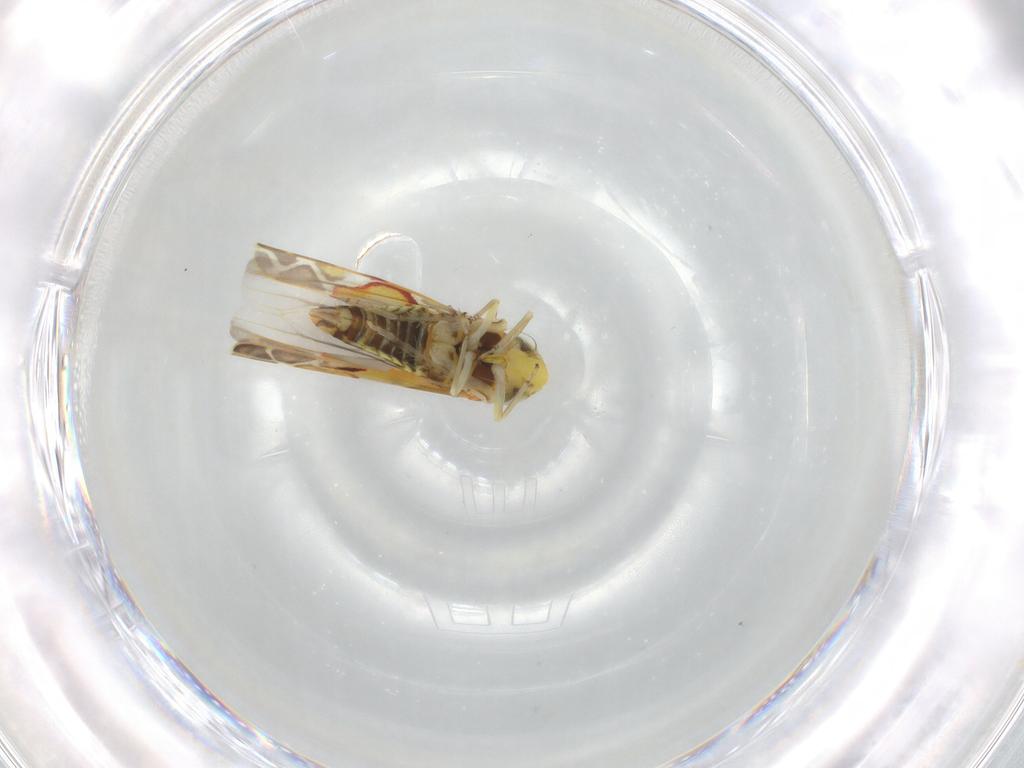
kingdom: Animalia
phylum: Arthropoda
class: Insecta
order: Hemiptera
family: Cicadellidae
